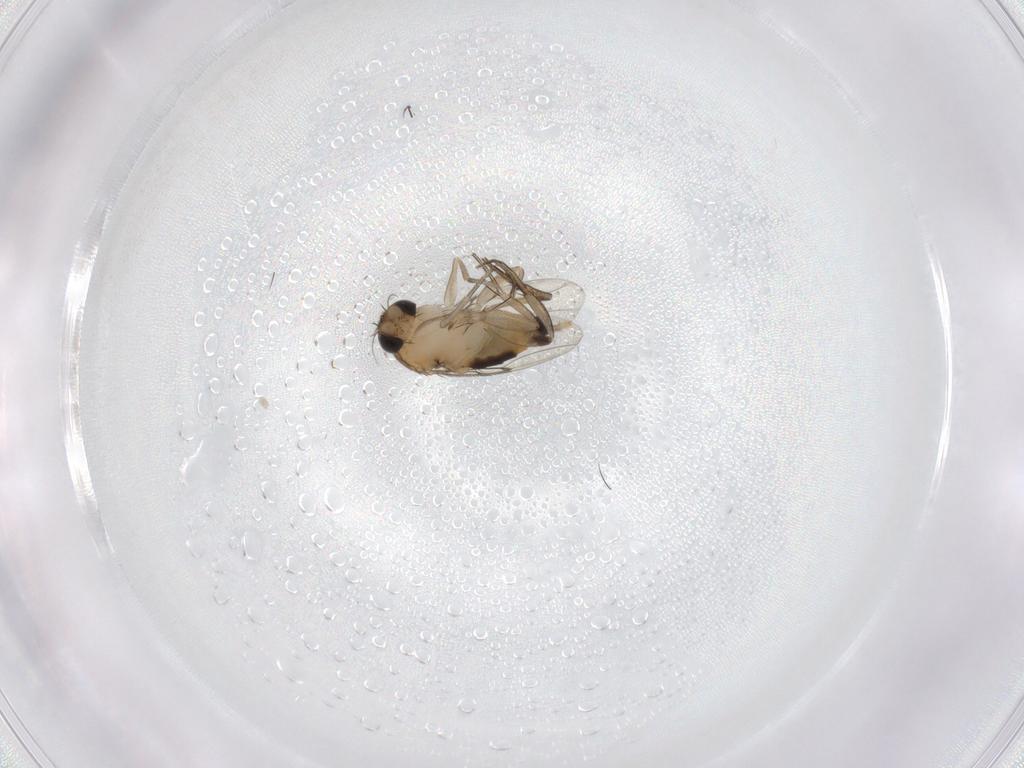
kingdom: Animalia
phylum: Arthropoda
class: Insecta
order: Diptera
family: Phoridae
